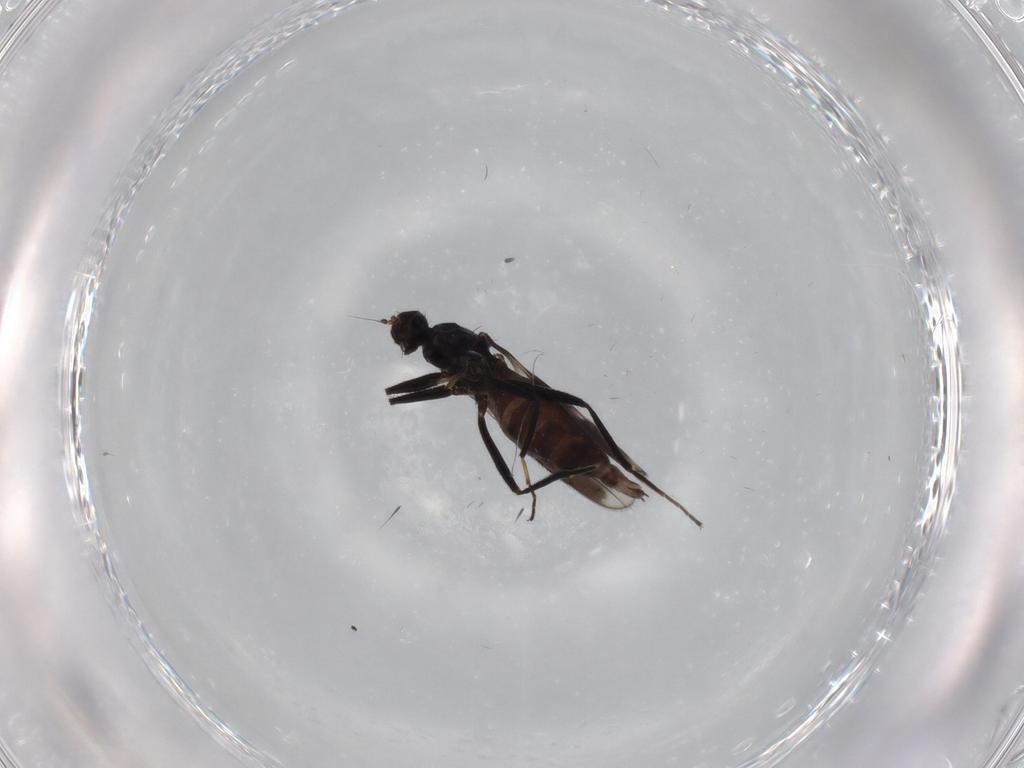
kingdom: Animalia
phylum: Arthropoda
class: Insecta
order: Diptera
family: Hybotidae
